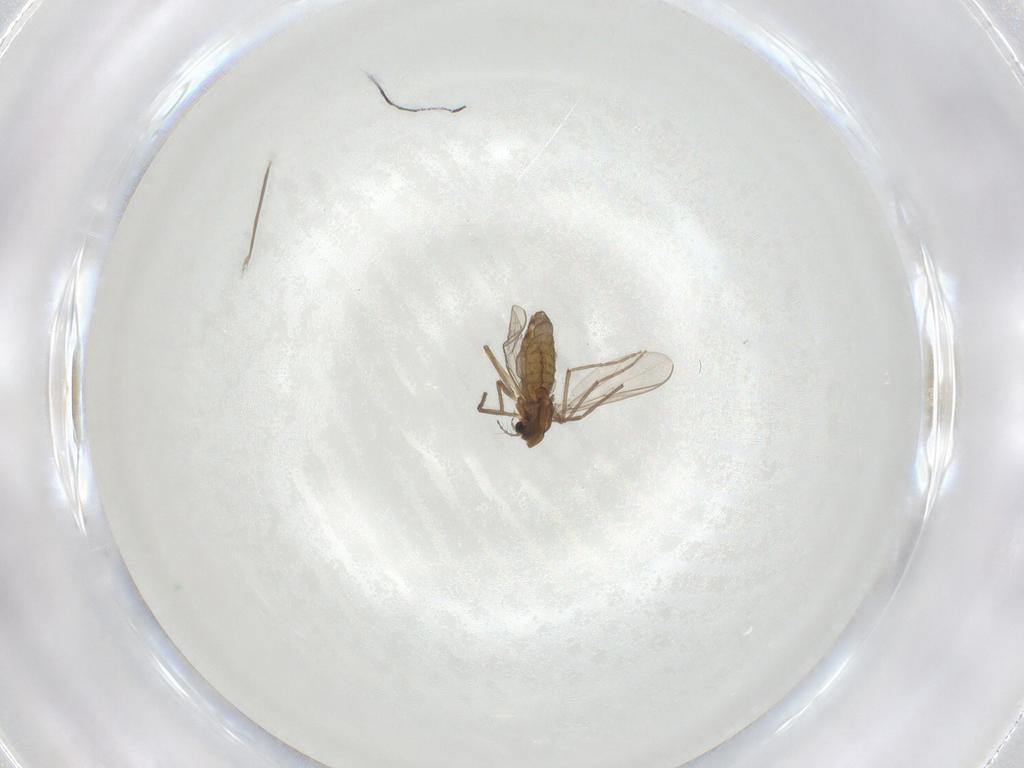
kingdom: Animalia
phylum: Arthropoda
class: Insecta
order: Diptera
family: Chironomidae
